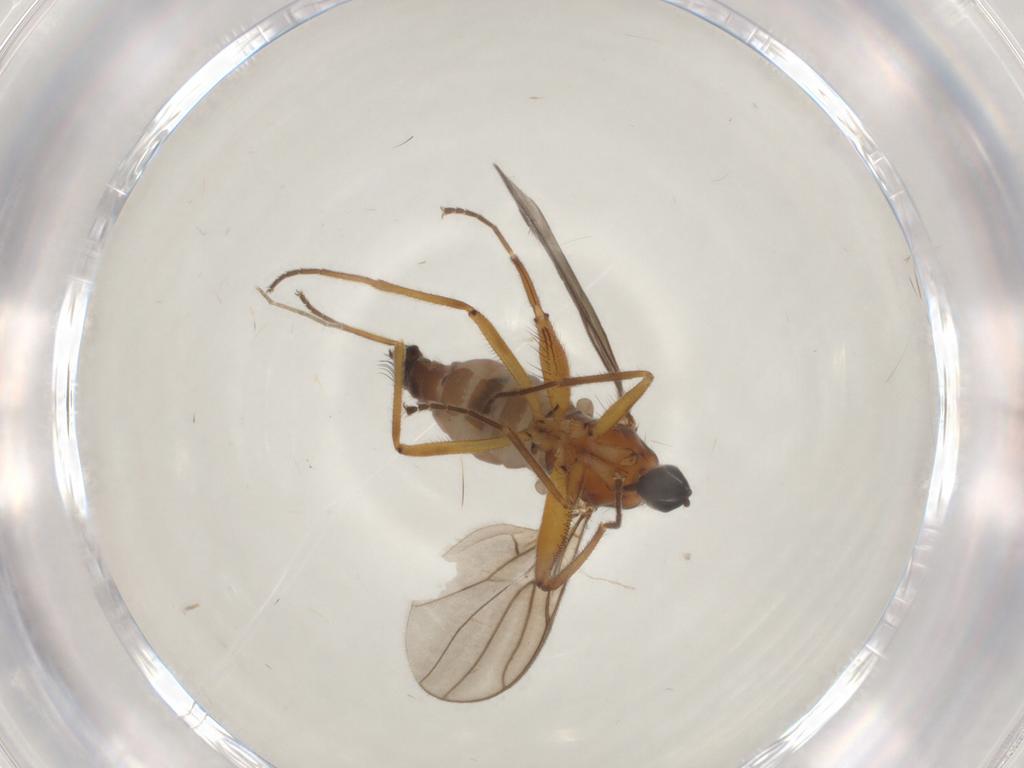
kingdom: Animalia
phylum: Arthropoda
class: Insecta
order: Diptera
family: Hybotidae
